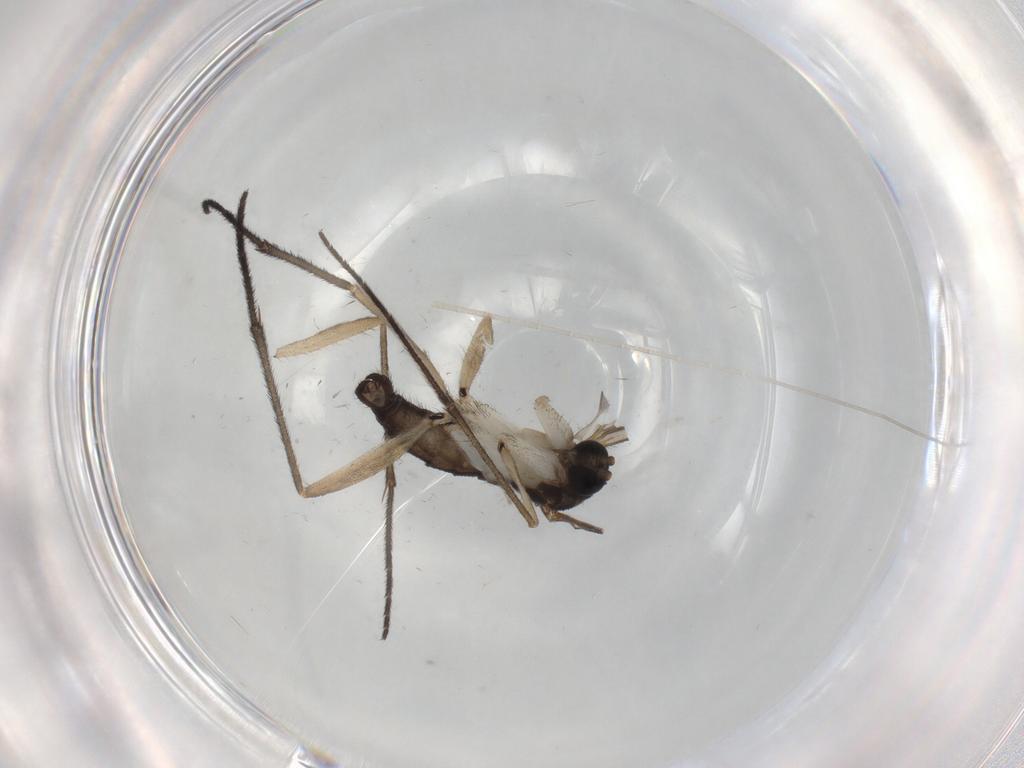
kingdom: Animalia
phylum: Arthropoda
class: Insecta
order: Diptera
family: Sciaridae
